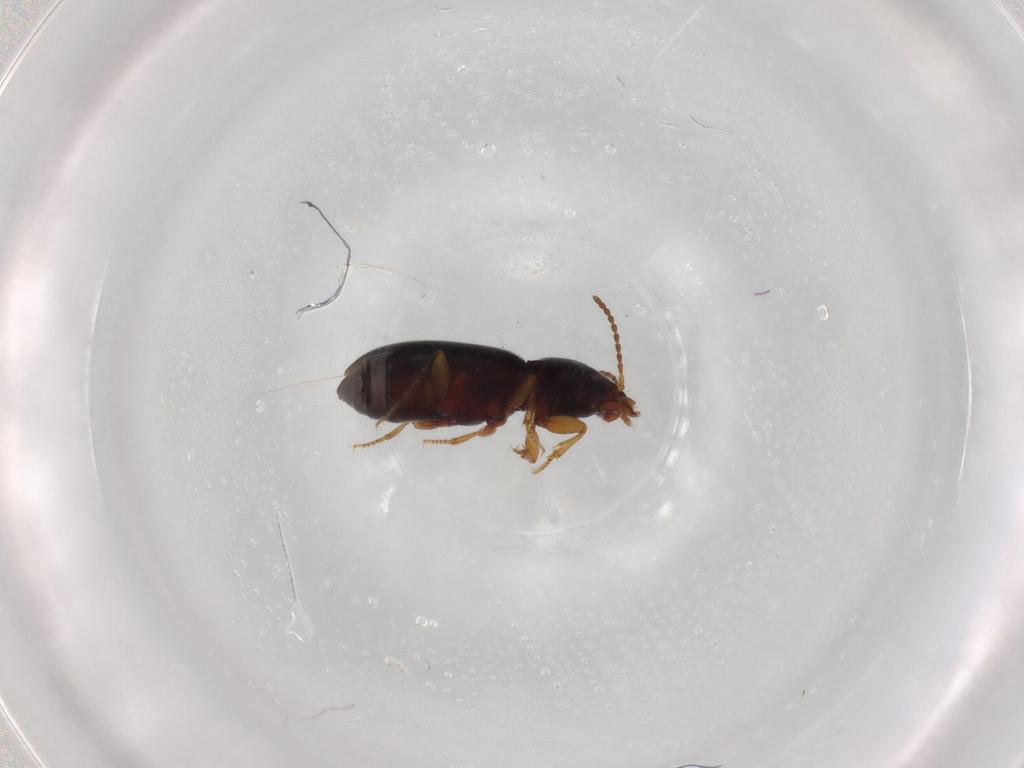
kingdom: Animalia
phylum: Arthropoda
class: Insecta
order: Coleoptera
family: Carabidae
